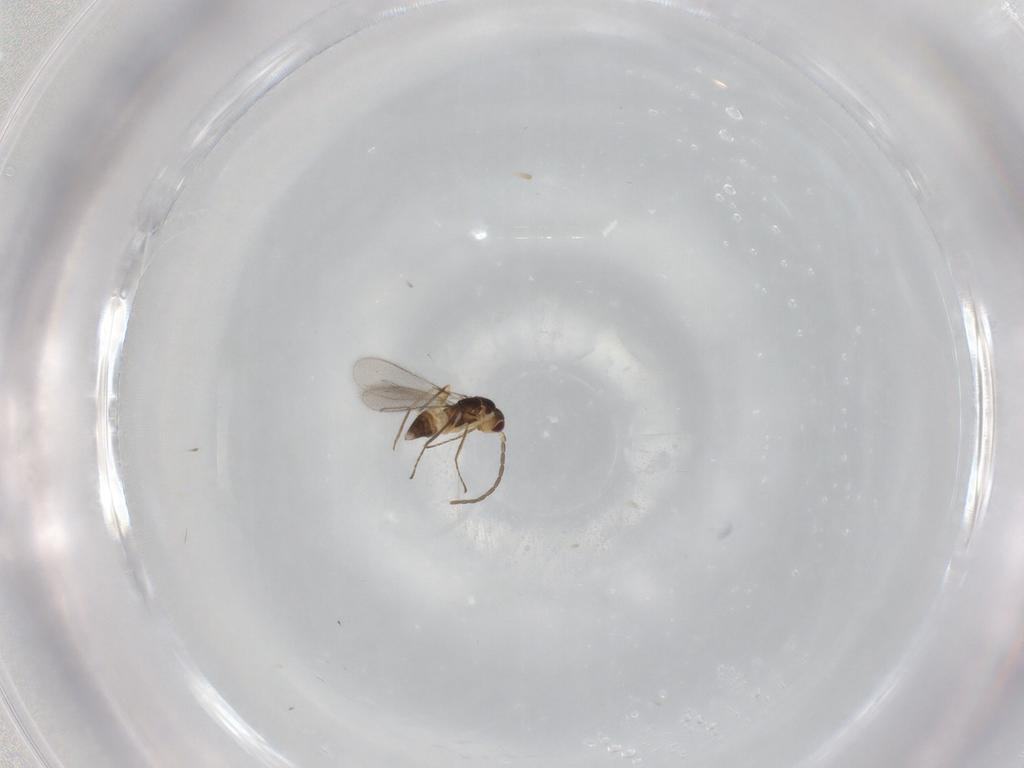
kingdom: Animalia
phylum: Arthropoda
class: Insecta
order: Hymenoptera
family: Mymaridae
